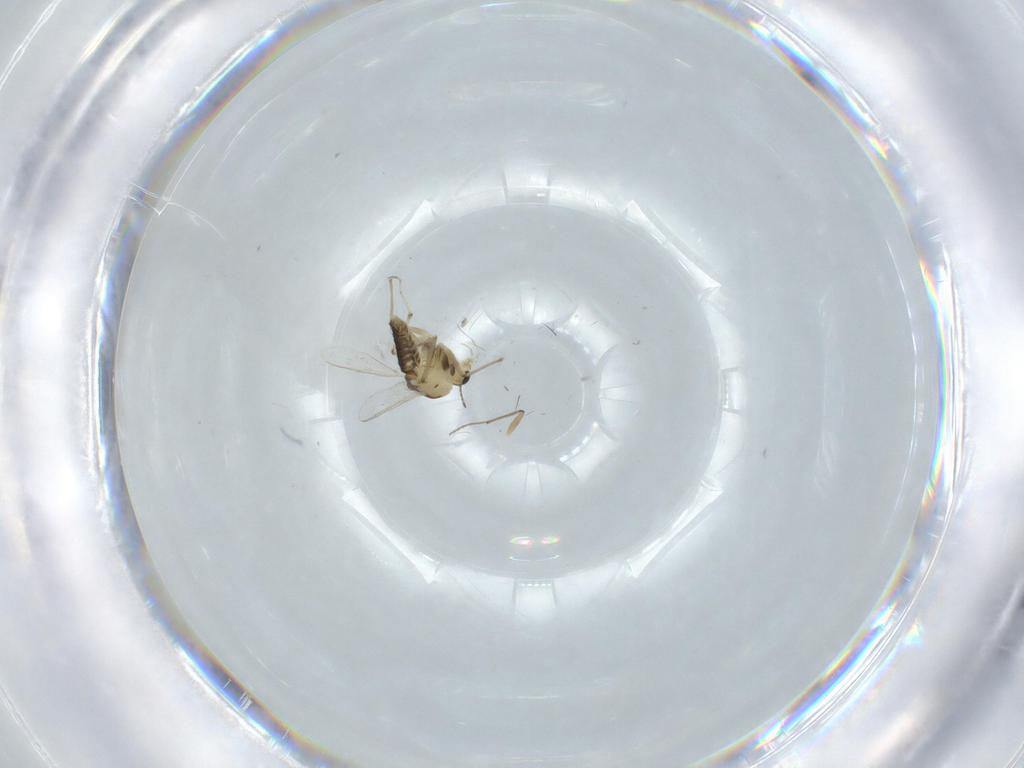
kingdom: Animalia
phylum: Arthropoda
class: Insecta
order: Diptera
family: Chironomidae
